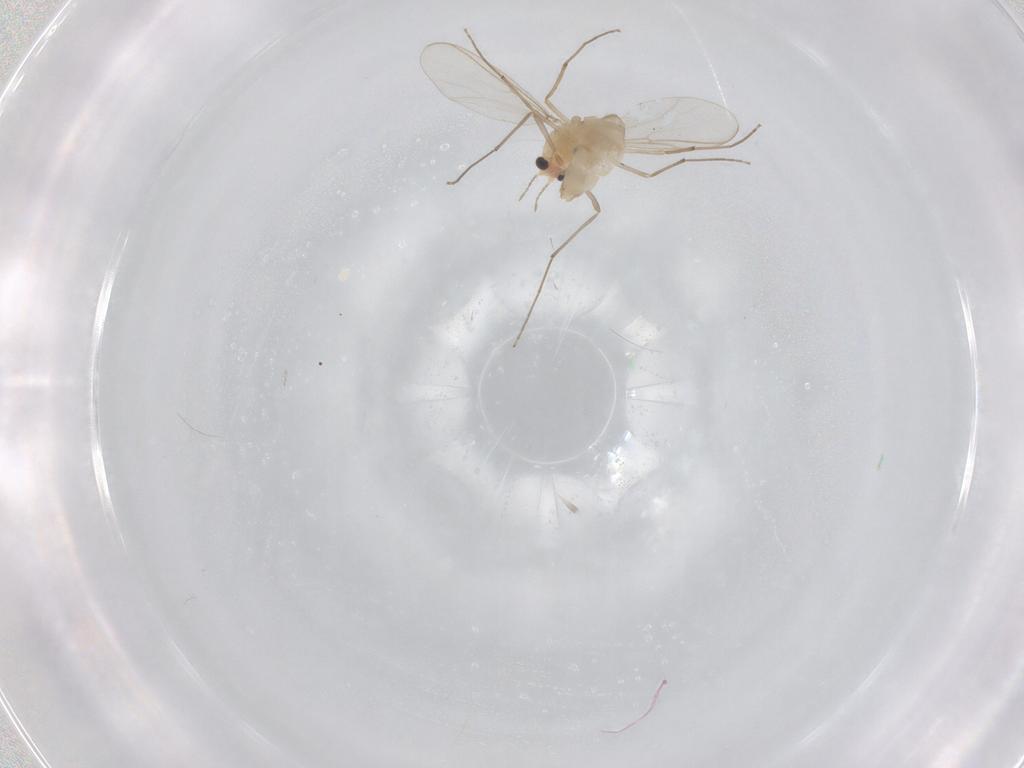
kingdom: Animalia
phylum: Arthropoda
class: Insecta
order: Diptera
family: Chironomidae
